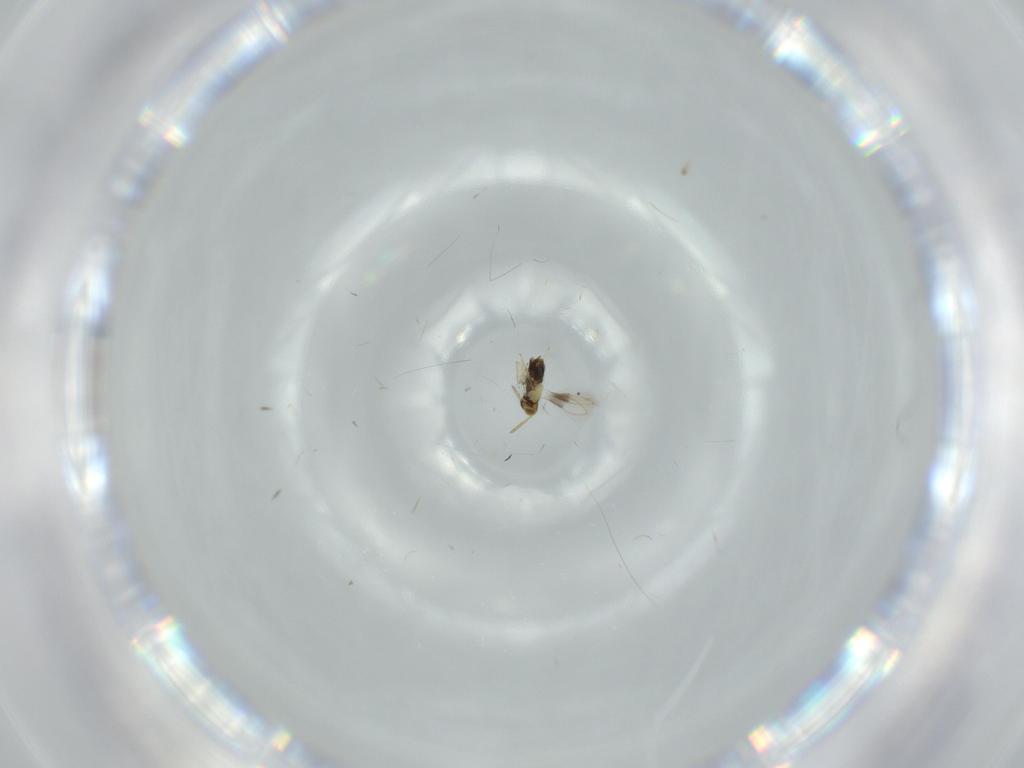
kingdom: Animalia
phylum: Arthropoda
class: Insecta
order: Hymenoptera
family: Aphelinidae
